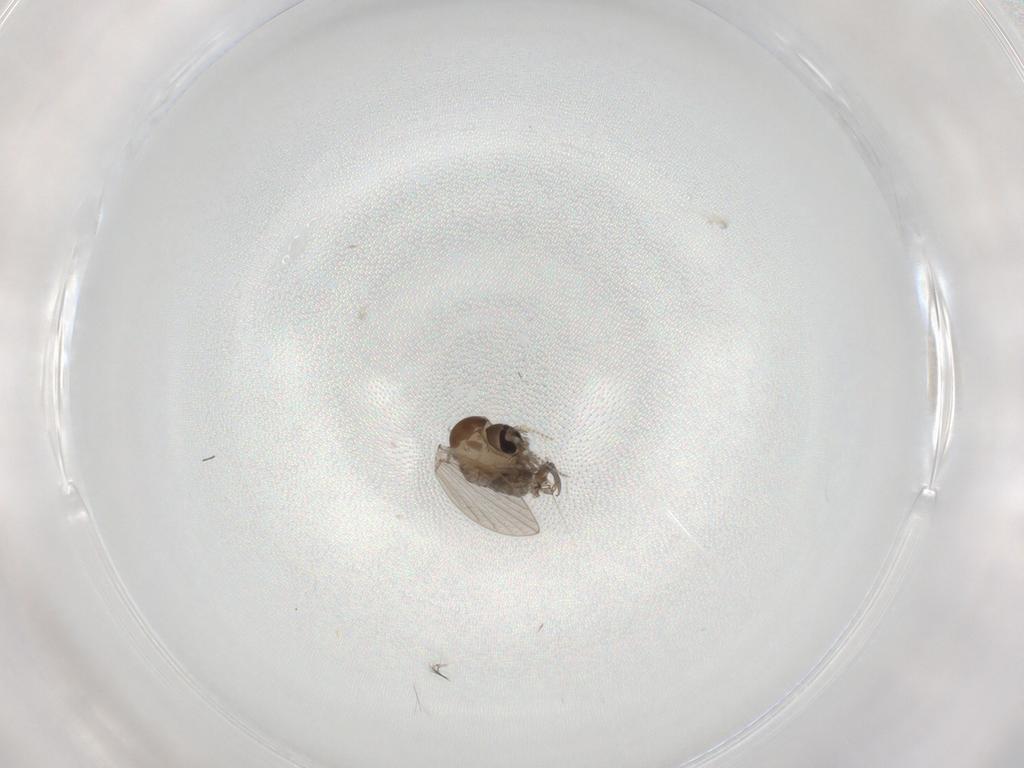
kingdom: Animalia
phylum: Arthropoda
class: Insecta
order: Diptera
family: Psychodidae
